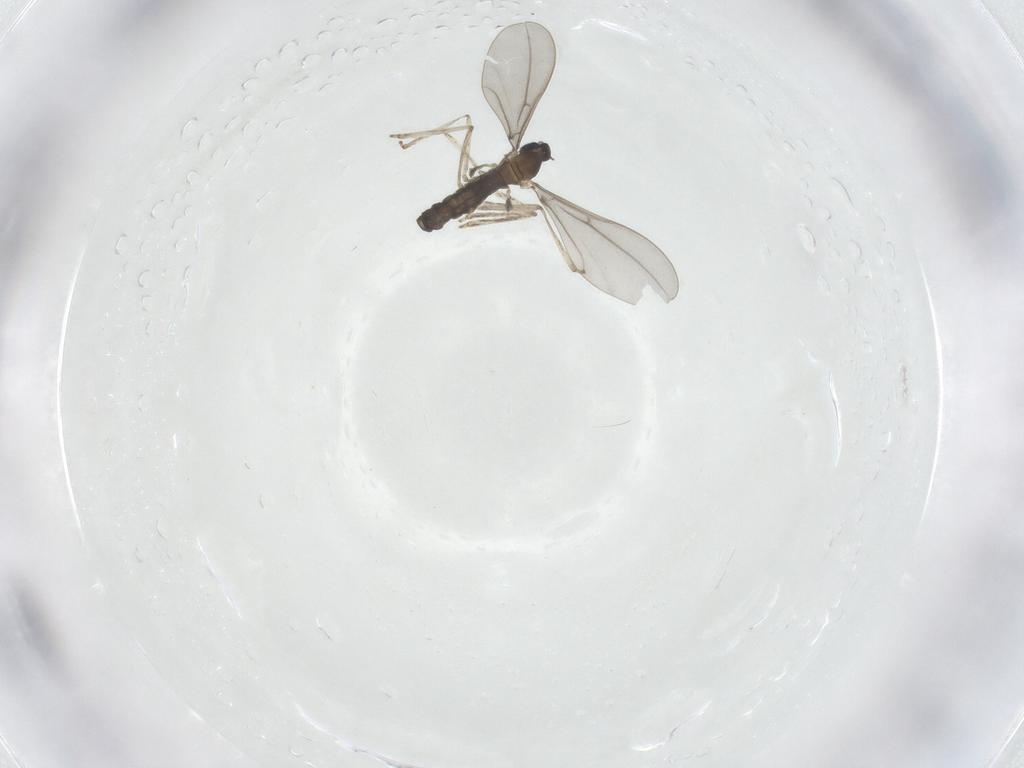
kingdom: Animalia
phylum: Arthropoda
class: Insecta
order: Diptera
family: Cecidomyiidae
